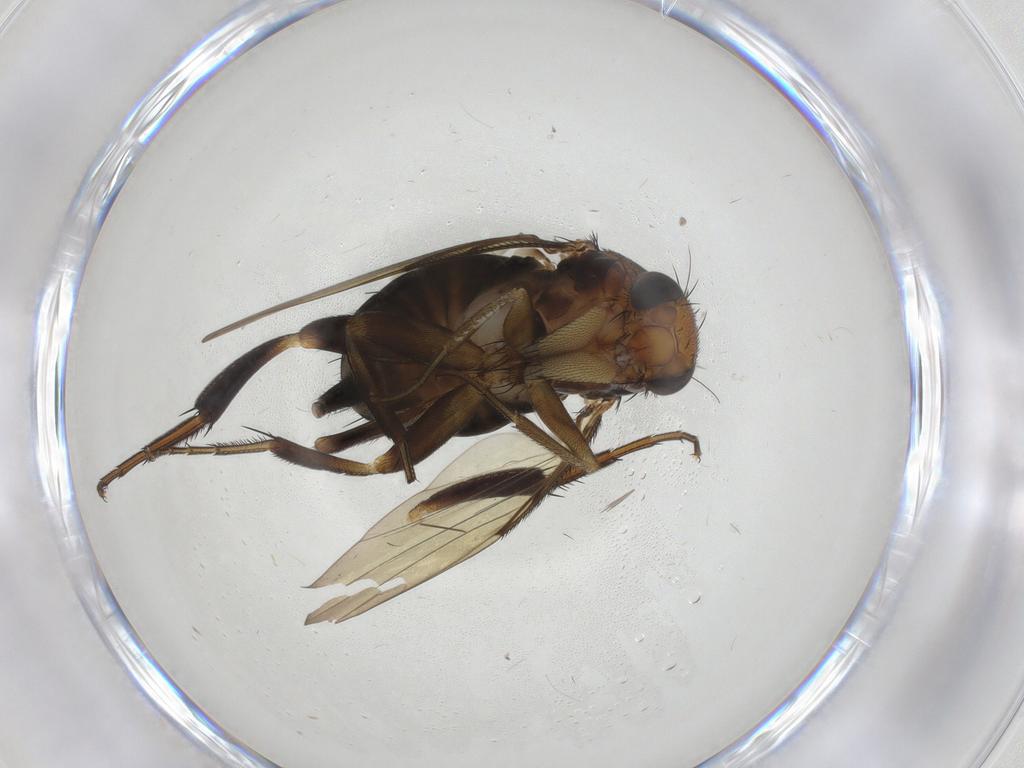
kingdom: Animalia
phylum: Arthropoda
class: Insecta
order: Diptera
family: Phoridae
